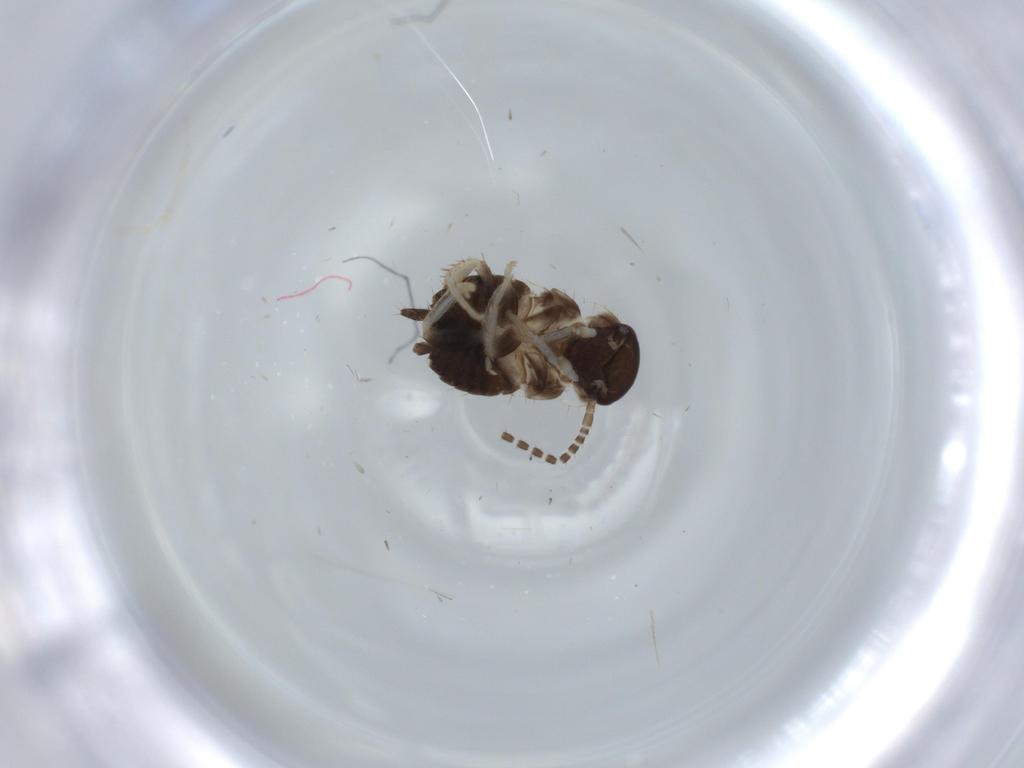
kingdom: Animalia
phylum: Arthropoda
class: Insecta
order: Blattodea
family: Ectobiidae
